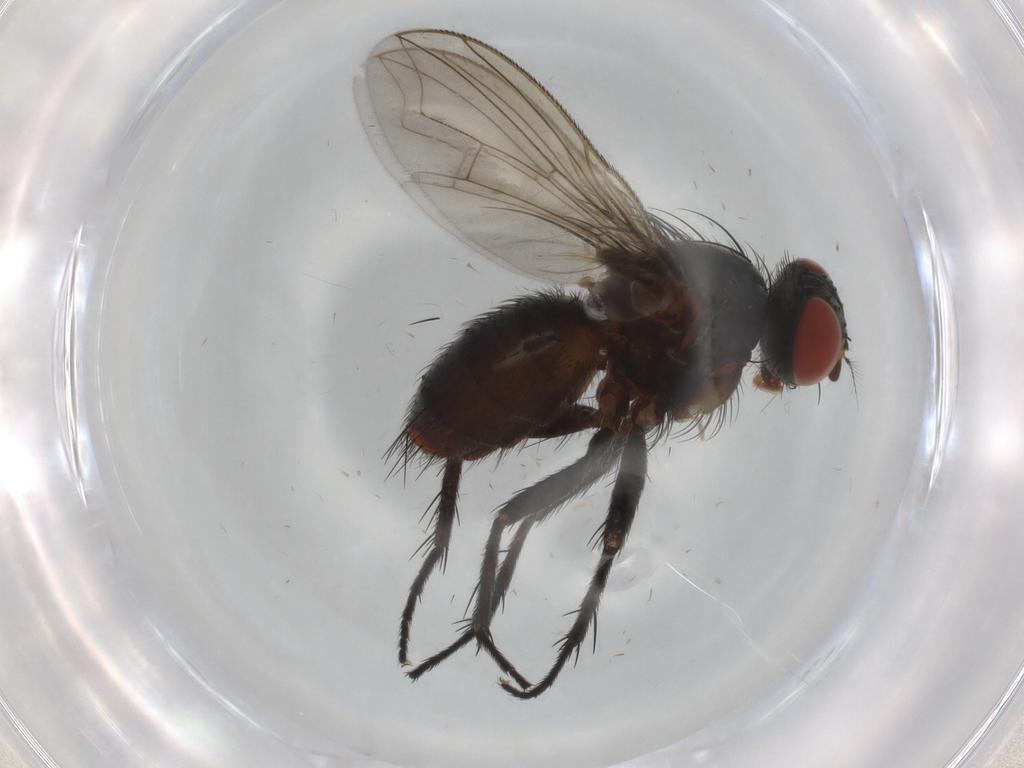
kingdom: Animalia
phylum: Arthropoda
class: Insecta
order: Diptera
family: Sarcophagidae
